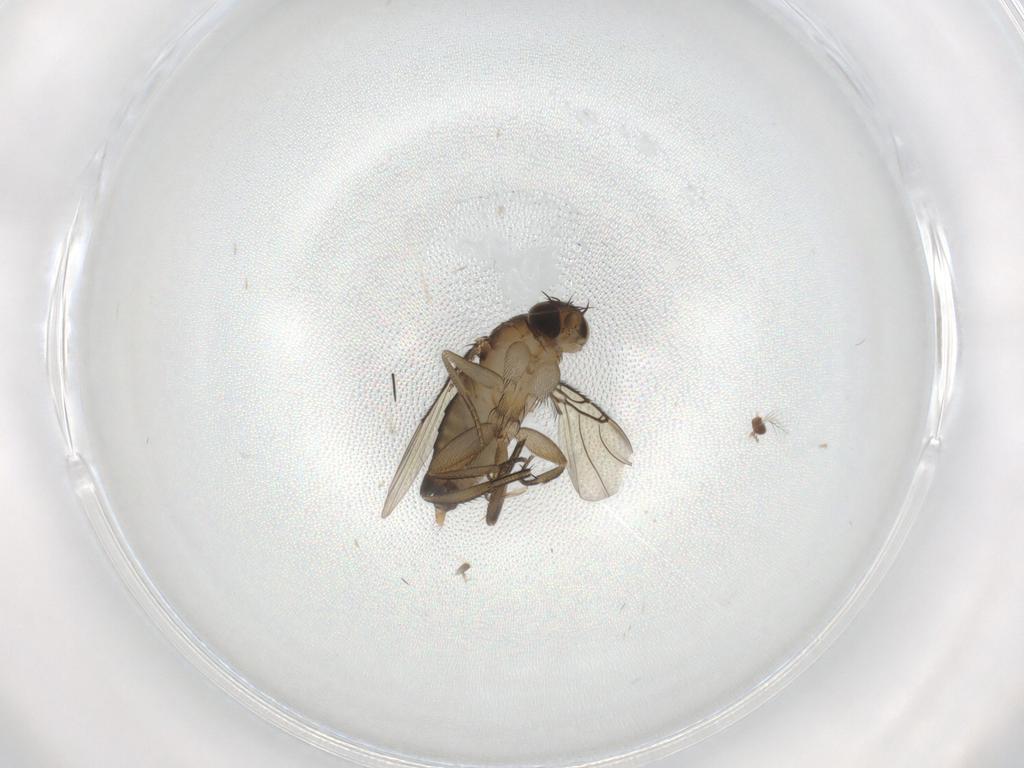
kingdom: Animalia
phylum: Arthropoda
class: Insecta
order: Diptera
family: Phoridae
